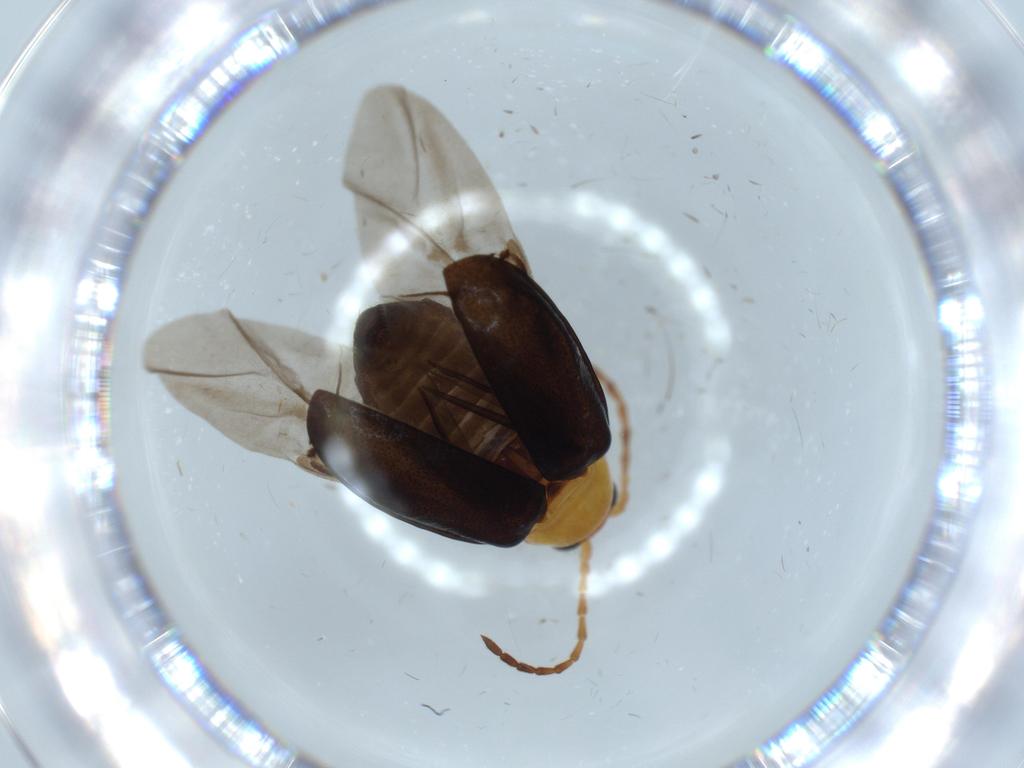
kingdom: Animalia
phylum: Arthropoda
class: Insecta
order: Coleoptera
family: Chrysomelidae
